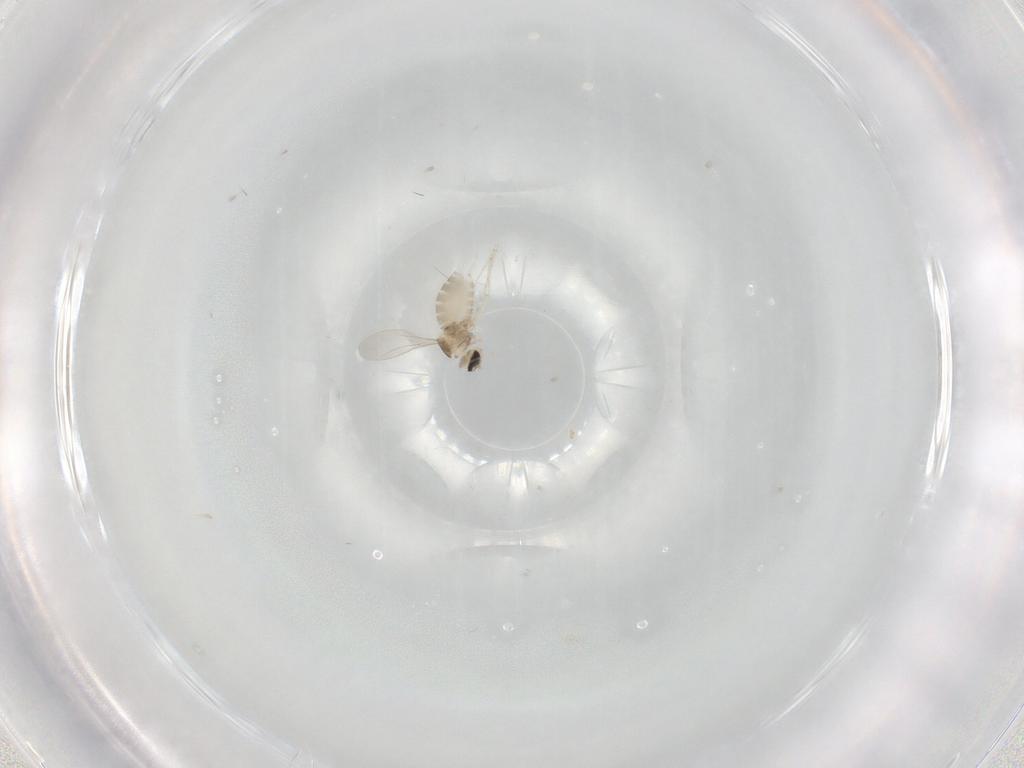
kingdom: Animalia
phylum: Arthropoda
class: Insecta
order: Diptera
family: Cecidomyiidae
